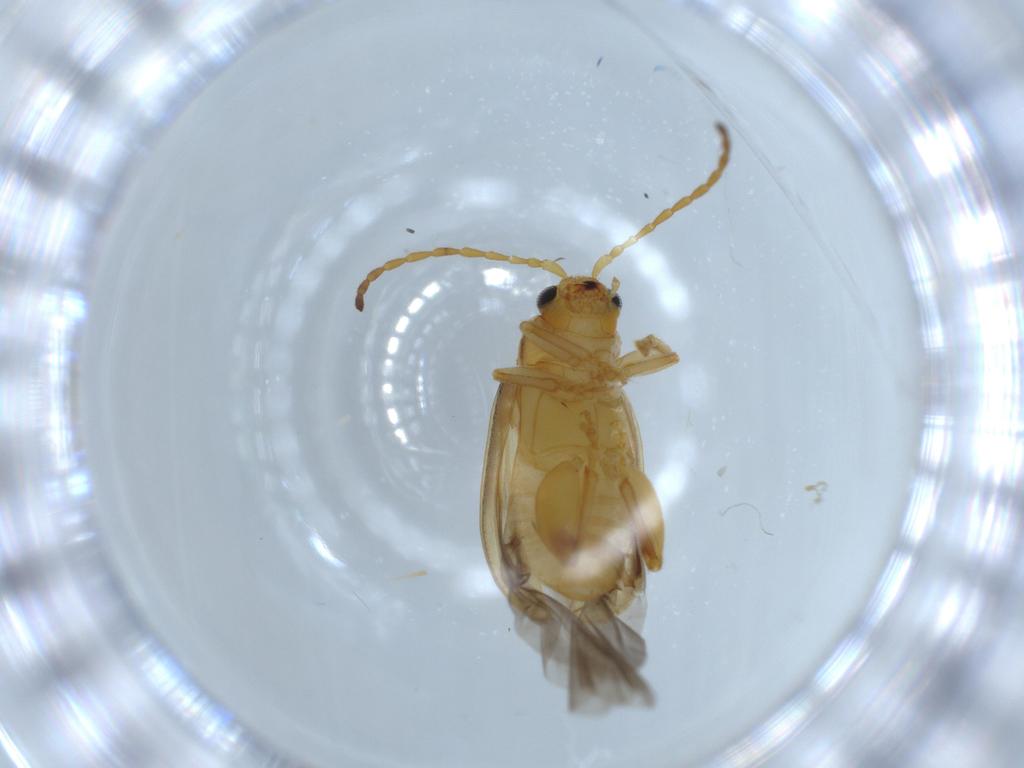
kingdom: Animalia
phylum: Arthropoda
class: Insecta
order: Coleoptera
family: Chrysomelidae
